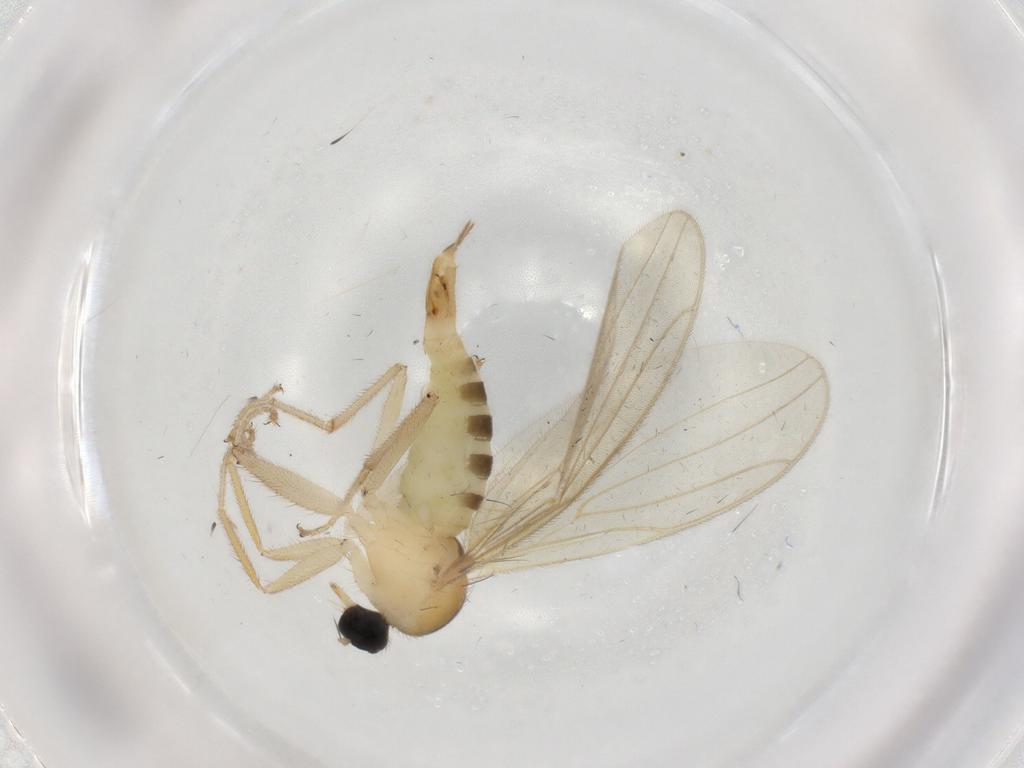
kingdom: Animalia
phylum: Arthropoda
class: Insecta
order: Diptera
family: Hybotidae
